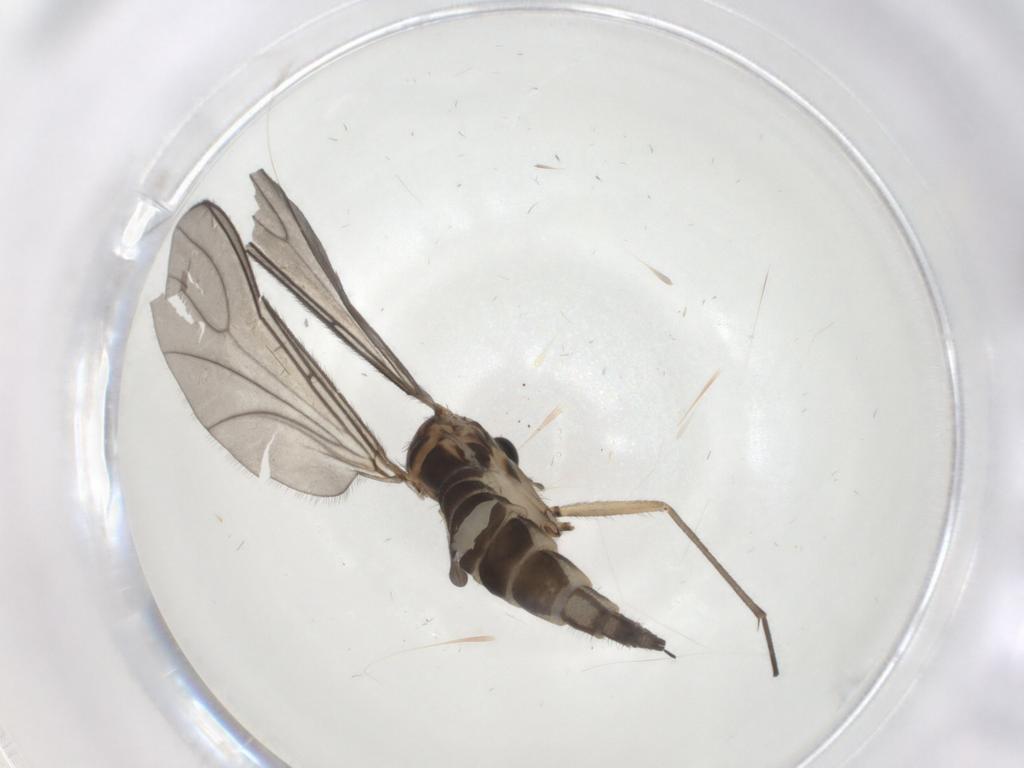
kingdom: Animalia
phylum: Arthropoda
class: Insecta
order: Diptera
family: Sciaridae
